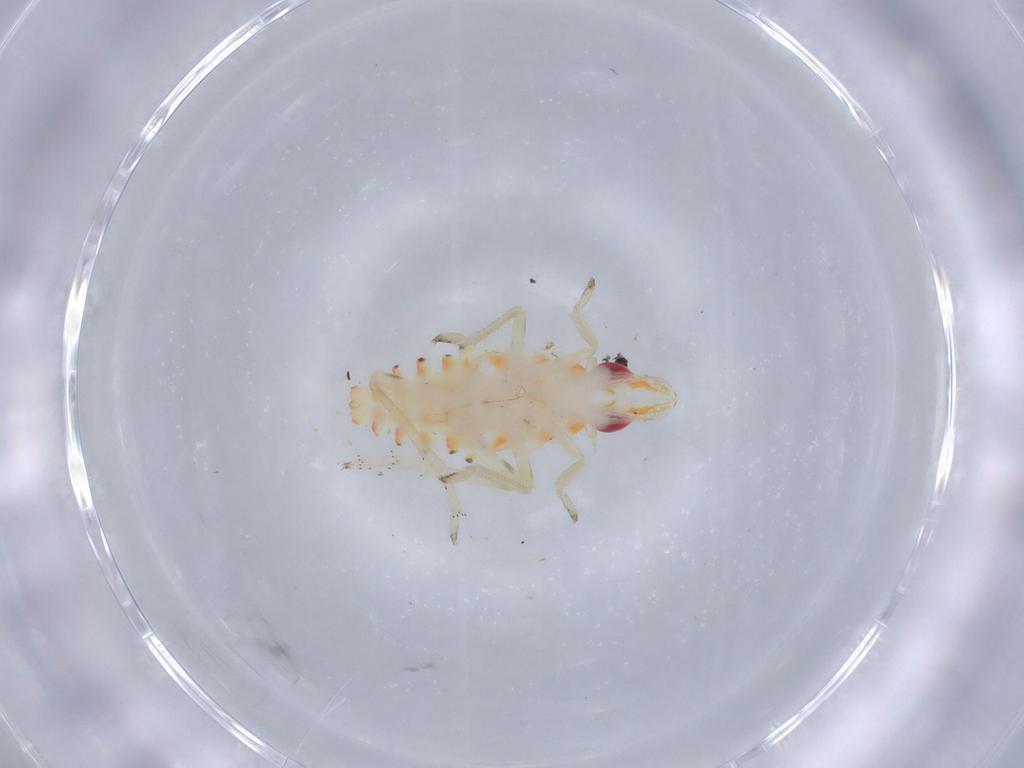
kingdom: Animalia
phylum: Arthropoda
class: Insecta
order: Hemiptera
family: Tropiduchidae
